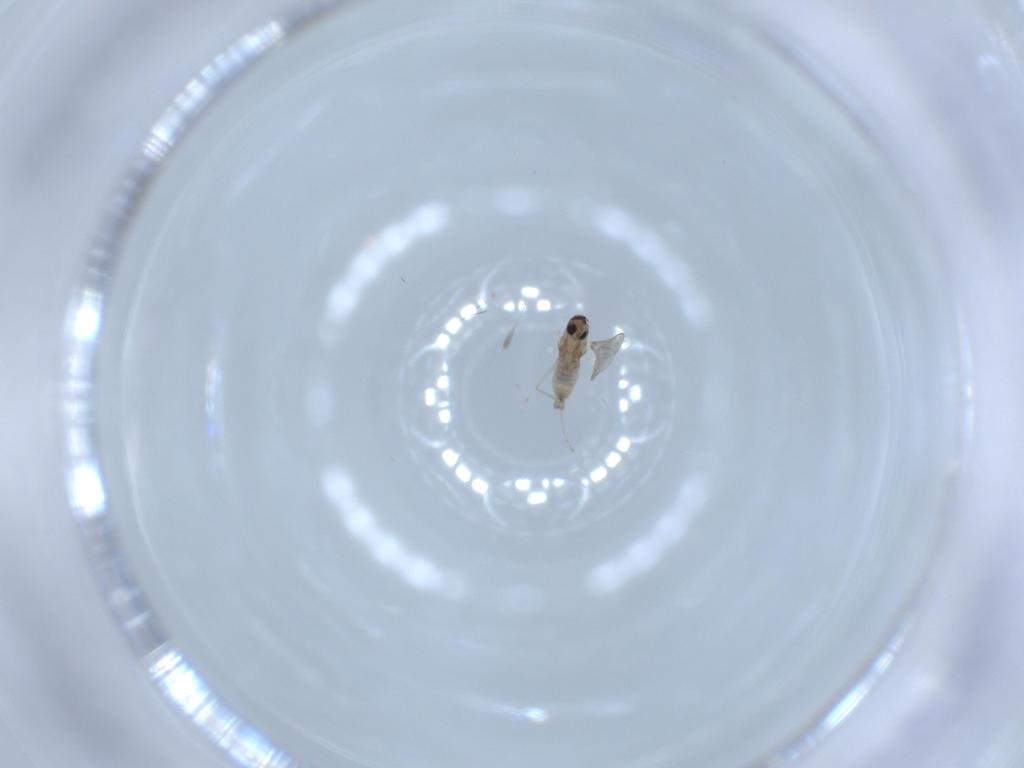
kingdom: Animalia
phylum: Arthropoda
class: Insecta
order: Diptera
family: Cecidomyiidae
